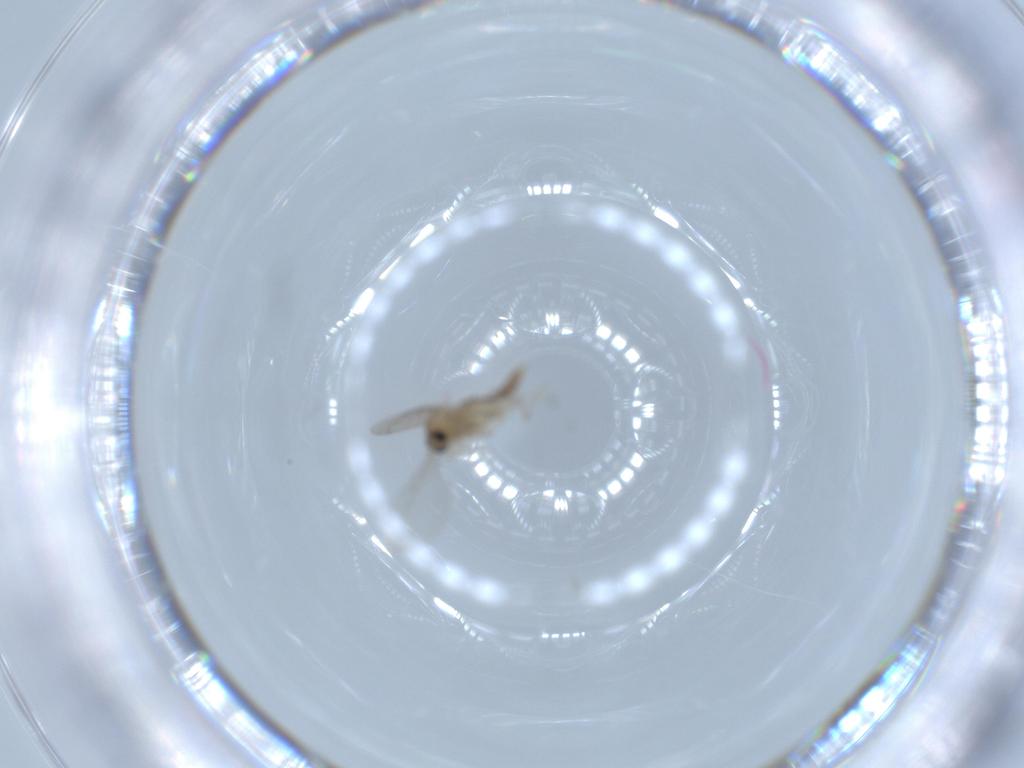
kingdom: Animalia
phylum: Arthropoda
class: Insecta
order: Diptera
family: Cecidomyiidae
